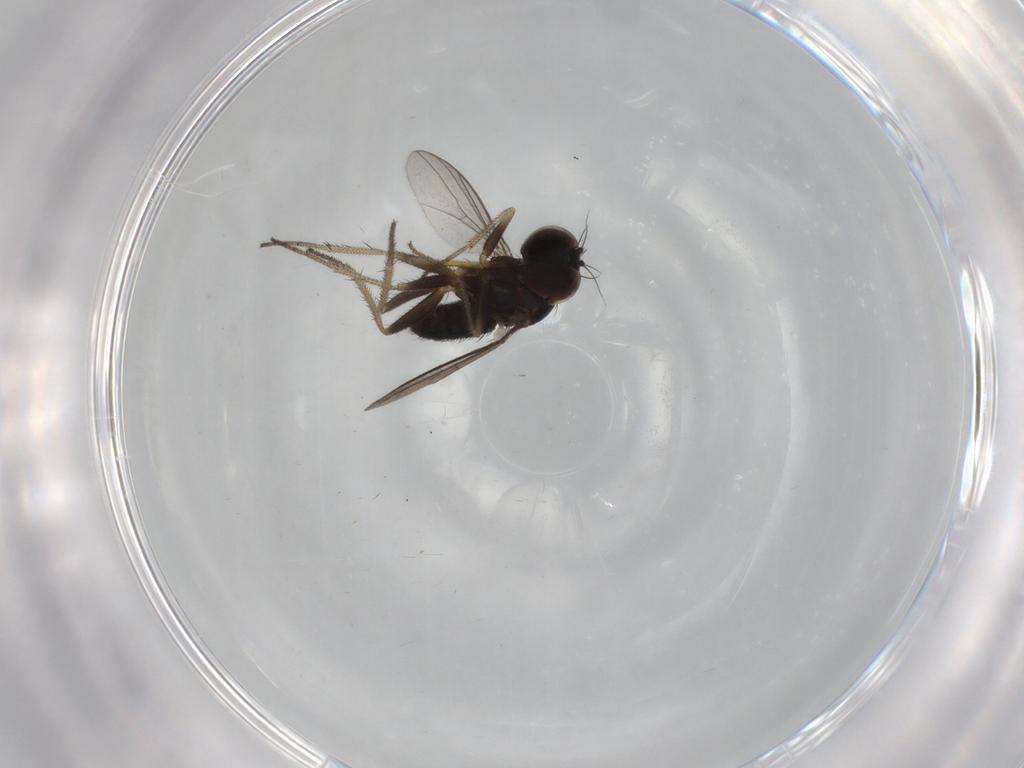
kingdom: Animalia
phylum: Arthropoda
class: Insecta
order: Diptera
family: Dolichopodidae
